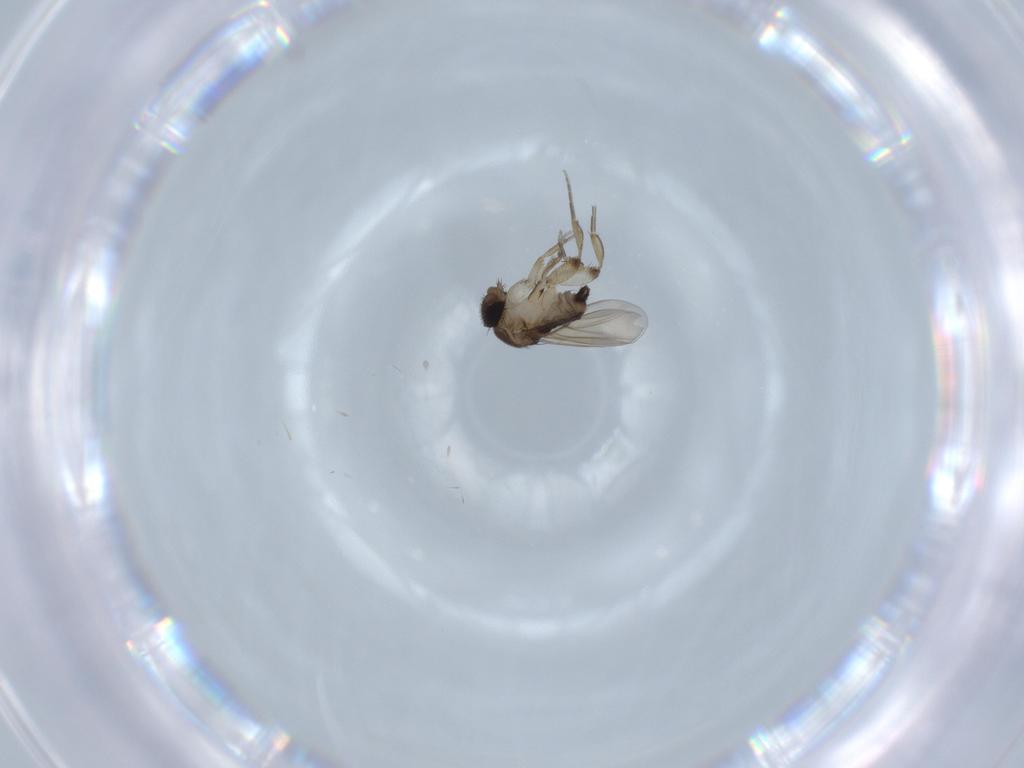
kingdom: Animalia
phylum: Arthropoda
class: Insecta
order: Diptera
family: Phoridae
